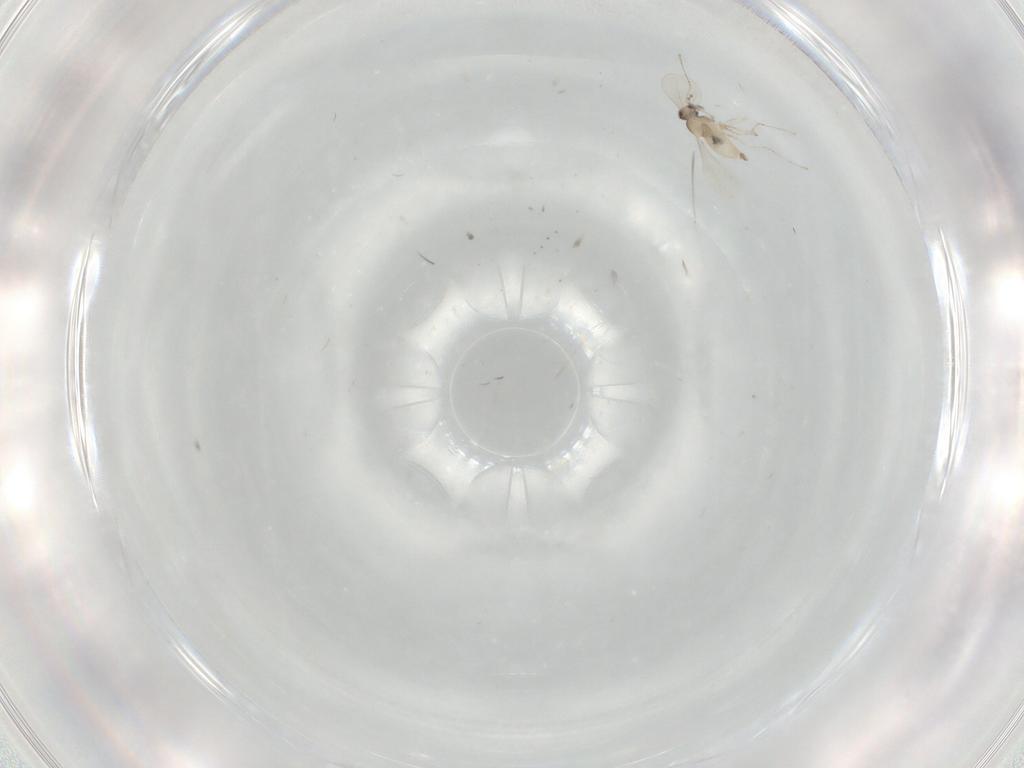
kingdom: Animalia
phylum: Arthropoda
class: Insecta
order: Diptera
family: Cecidomyiidae
